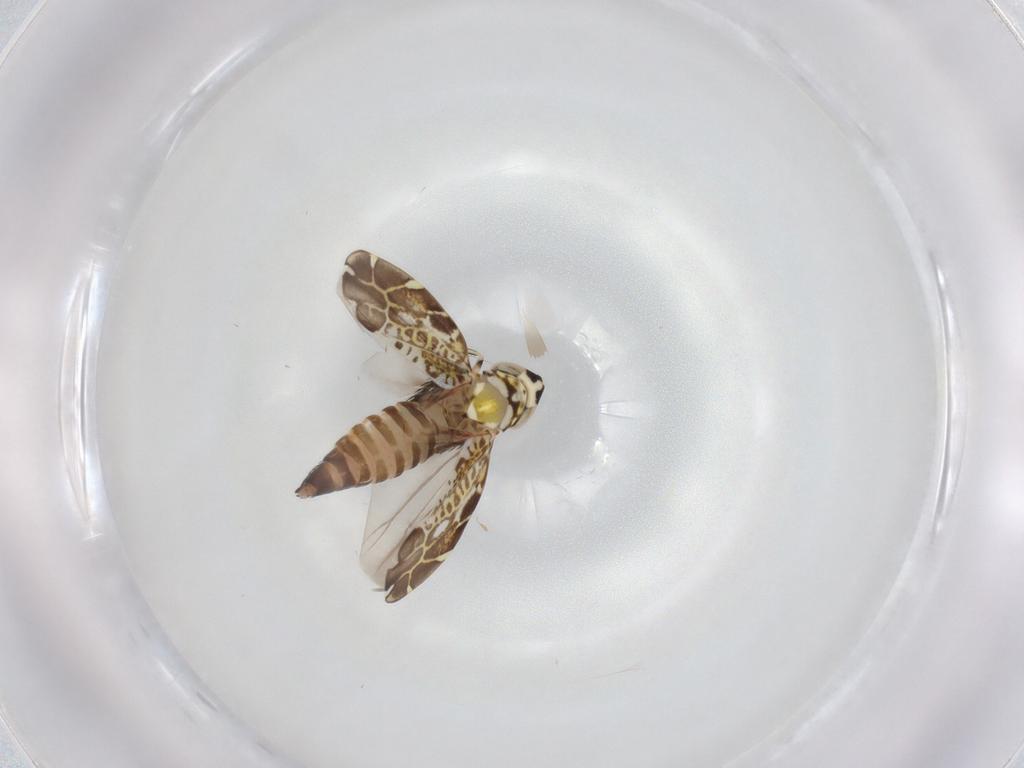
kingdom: Animalia
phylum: Arthropoda
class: Insecta
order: Hemiptera
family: Cicadellidae
